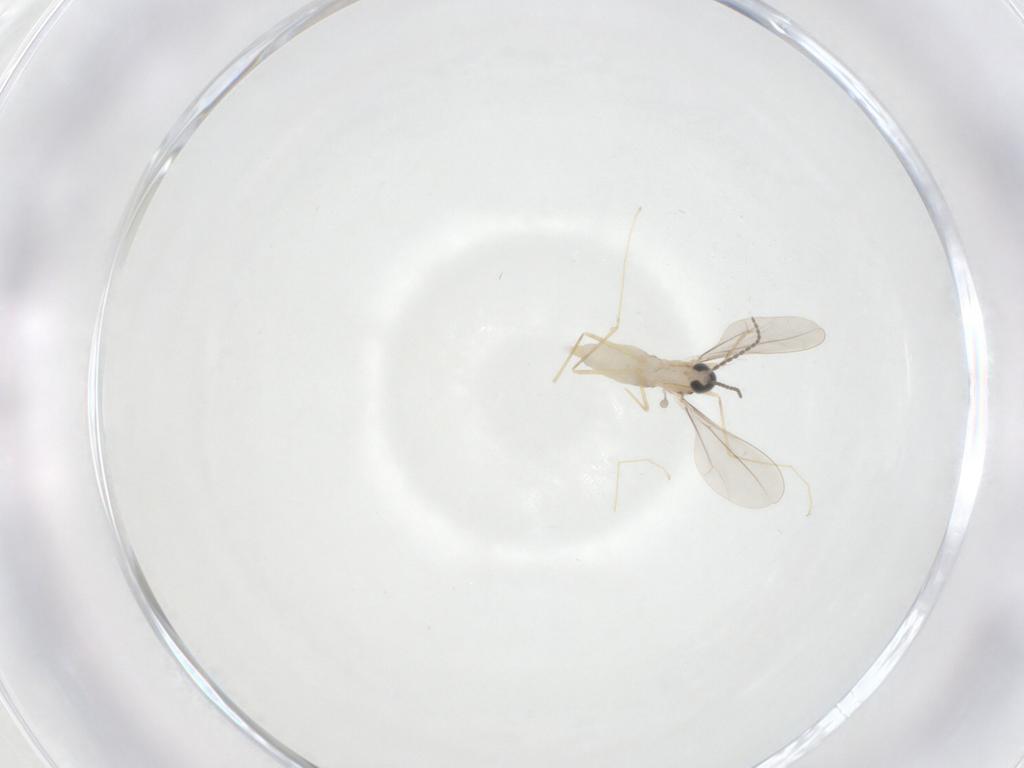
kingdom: Animalia
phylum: Arthropoda
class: Insecta
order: Diptera
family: Cecidomyiidae
